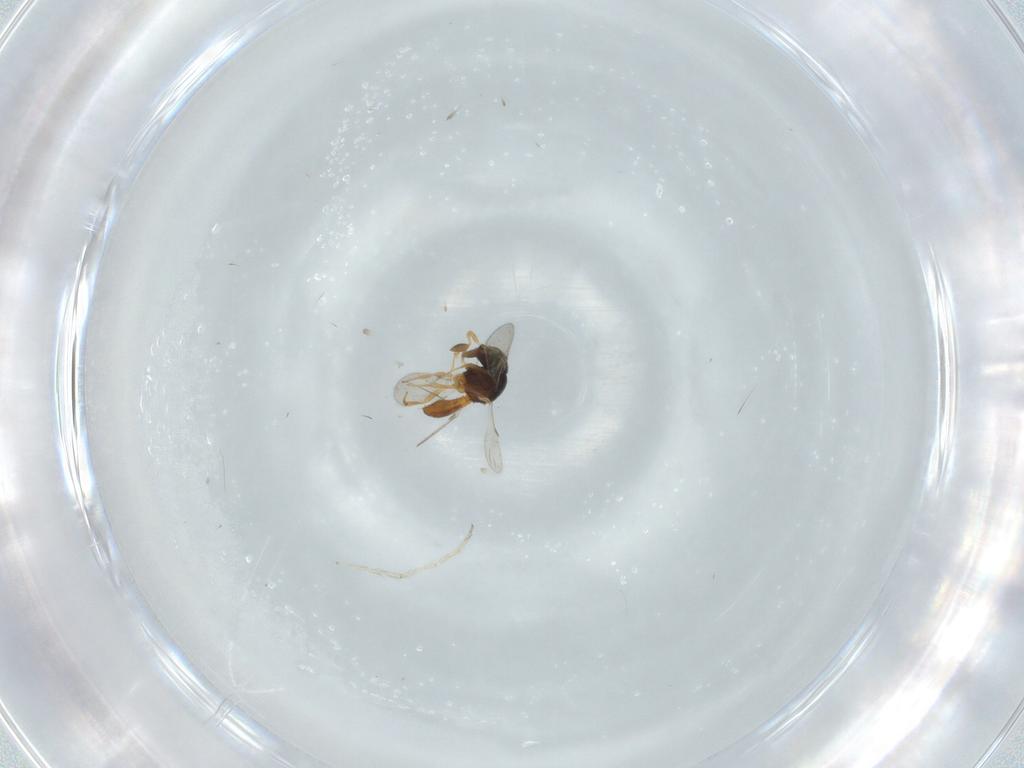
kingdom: Animalia
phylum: Arthropoda
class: Insecta
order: Hymenoptera
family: Scelionidae
